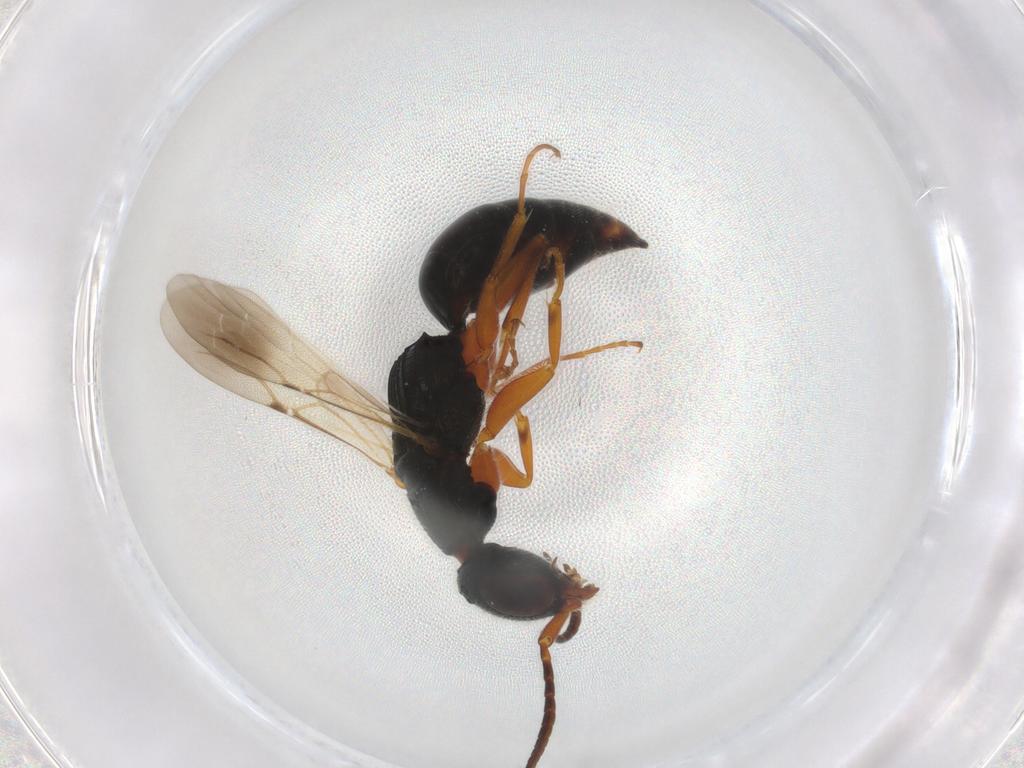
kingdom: Animalia
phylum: Arthropoda
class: Insecta
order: Hymenoptera
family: Bethylidae
